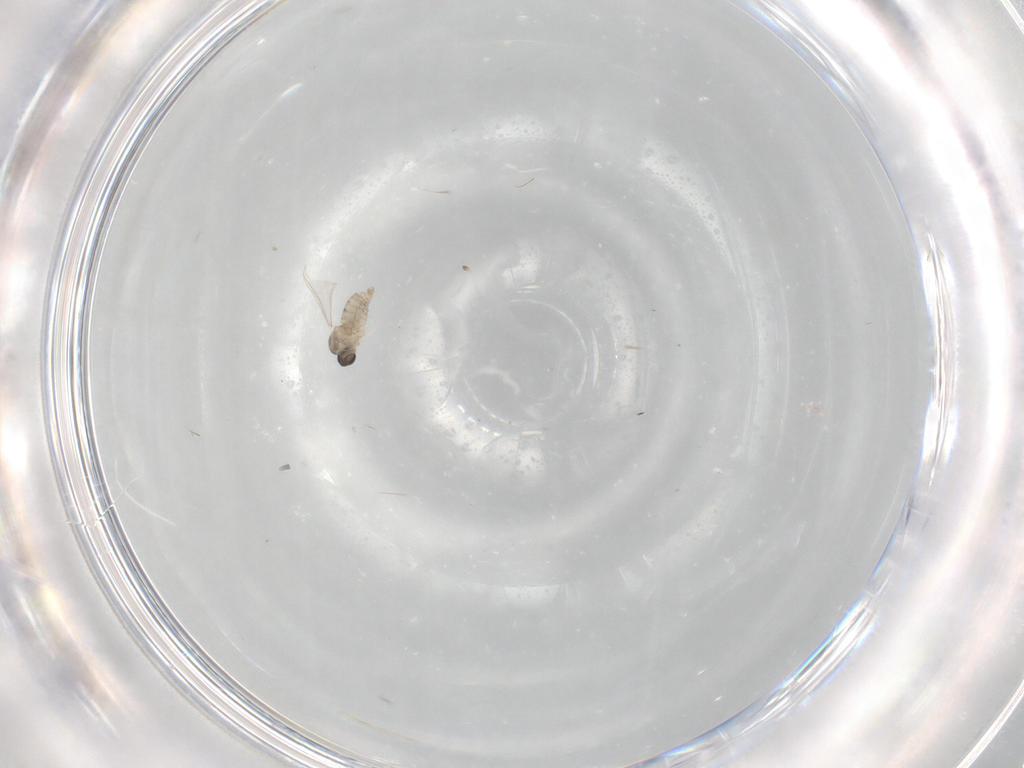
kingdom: Animalia
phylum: Arthropoda
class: Insecta
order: Diptera
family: Cecidomyiidae
